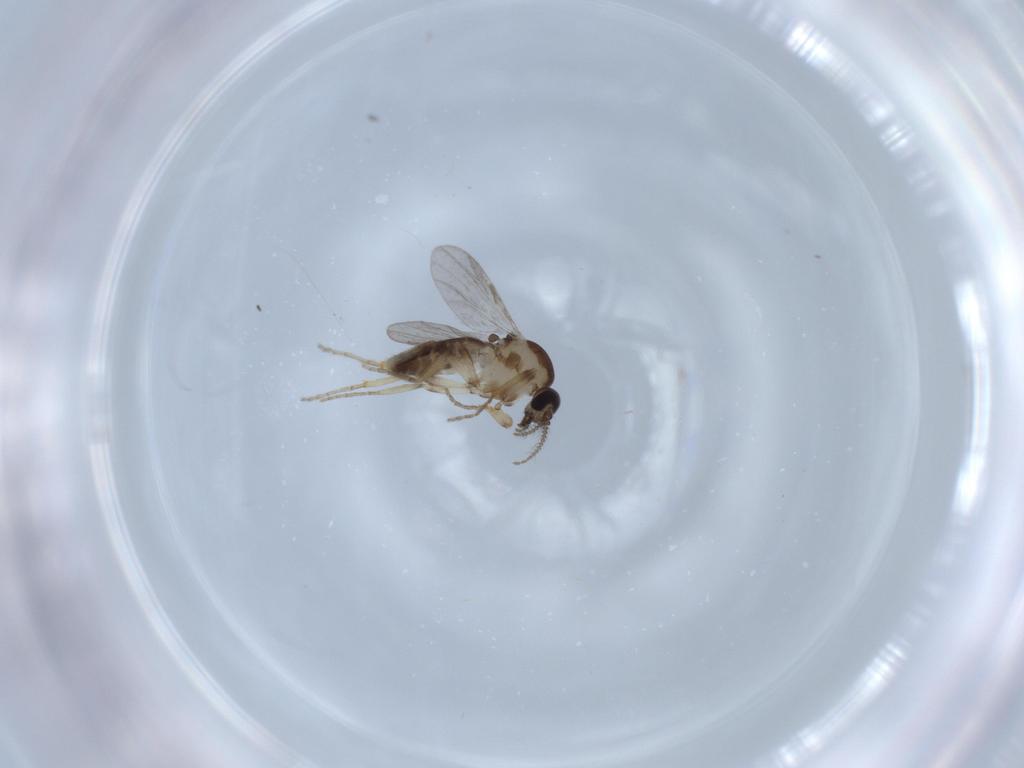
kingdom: Animalia
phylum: Arthropoda
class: Insecta
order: Diptera
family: Ceratopogonidae
